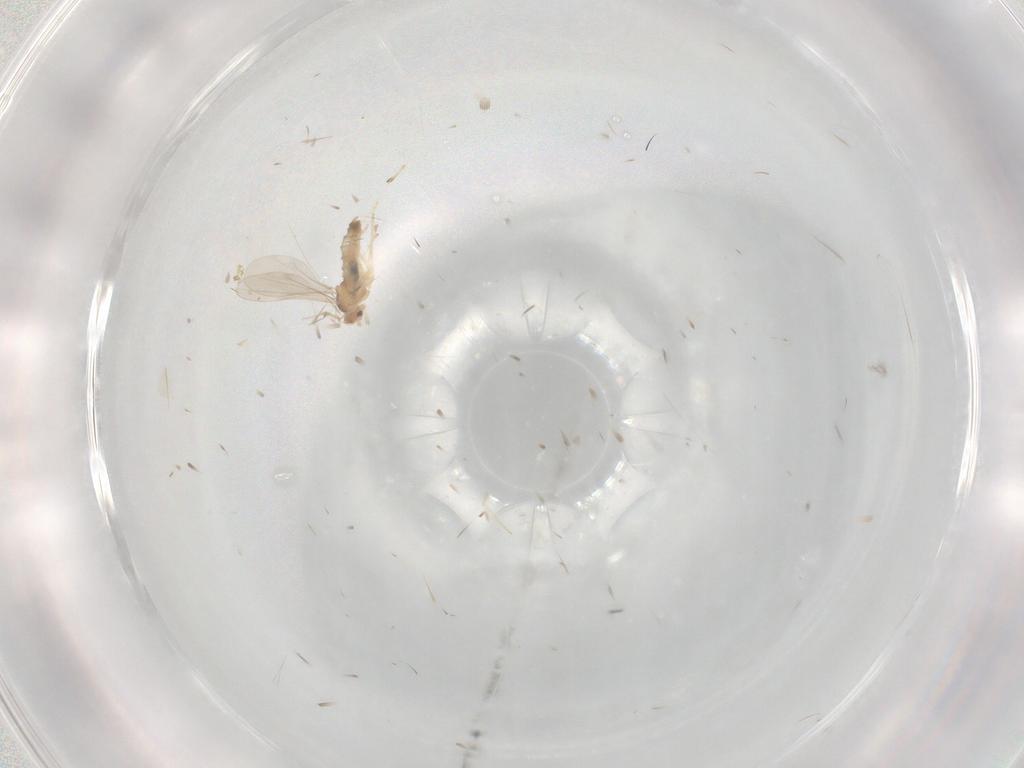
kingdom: Animalia
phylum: Arthropoda
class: Insecta
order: Diptera
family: Cecidomyiidae
